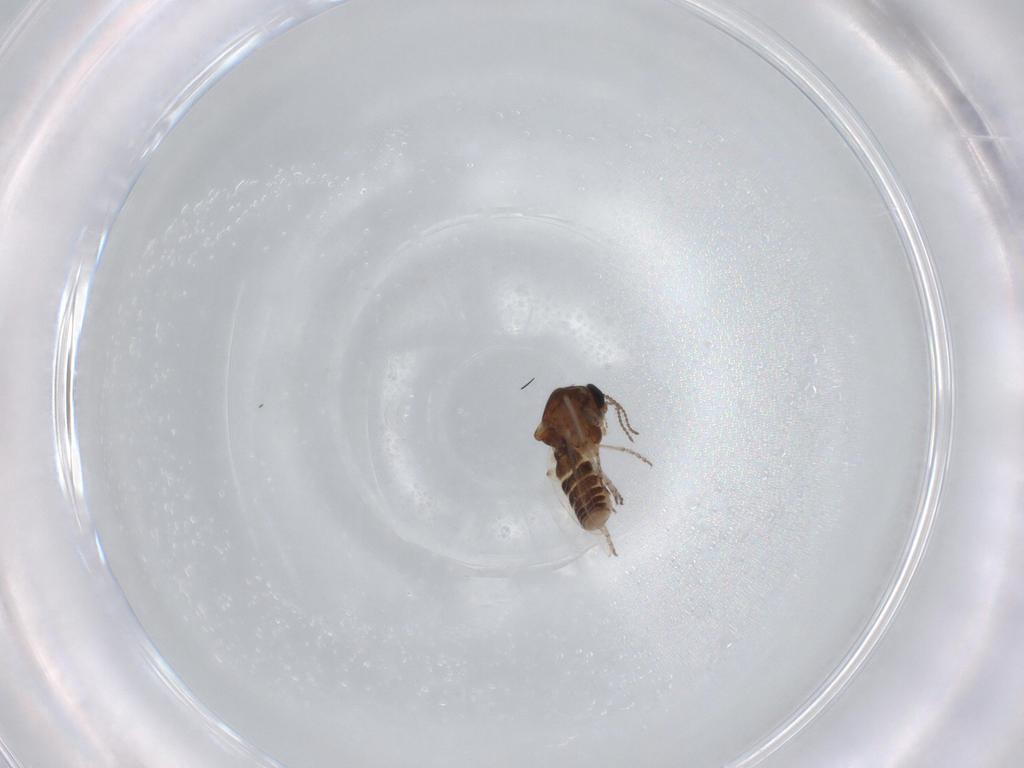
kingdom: Animalia
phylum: Arthropoda
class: Insecta
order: Diptera
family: Ceratopogonidae
